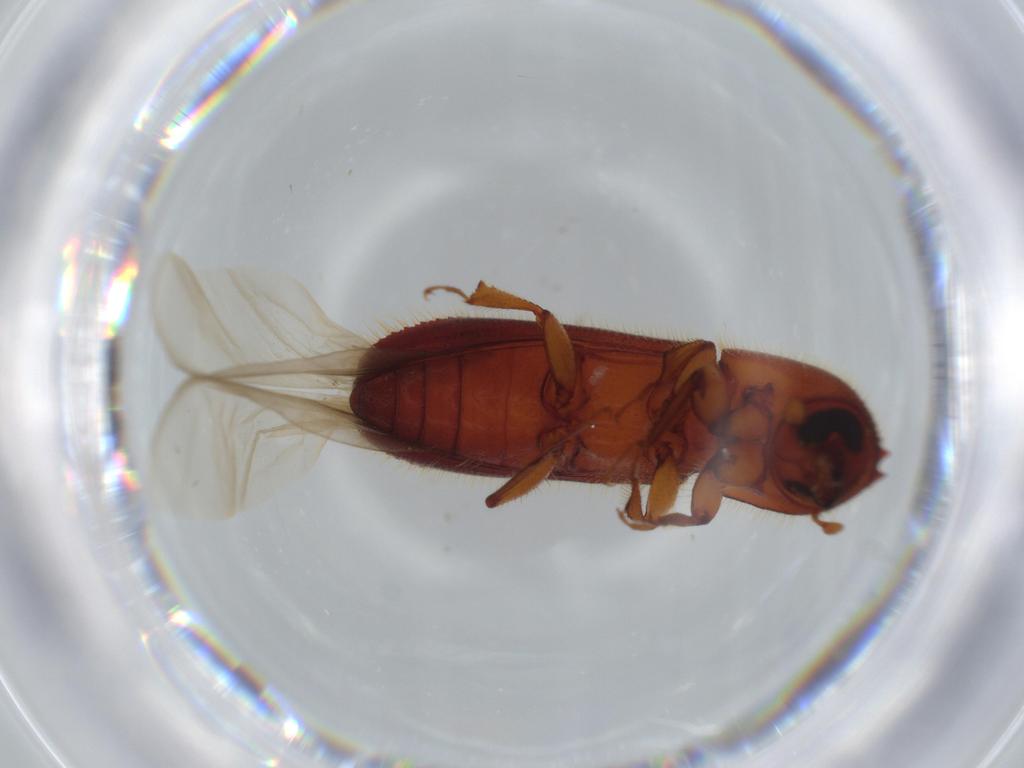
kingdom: Animalia
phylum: Arthropoda
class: Insecta
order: Coleoptera
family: Curculionidae
